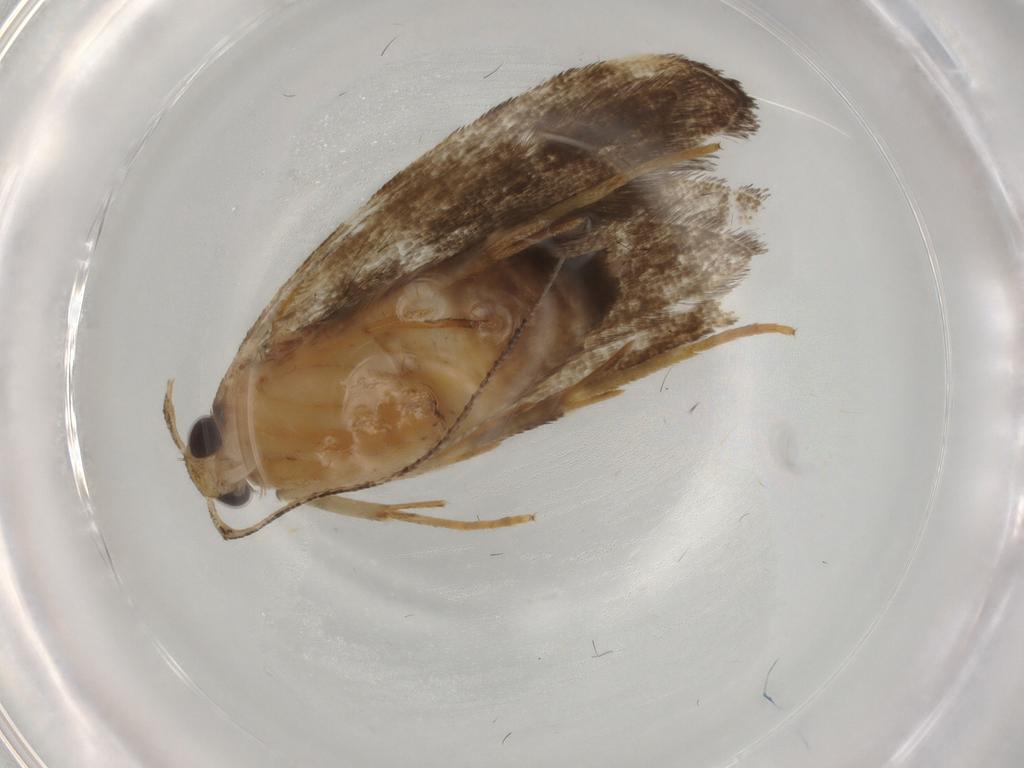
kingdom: Animalia
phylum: Arthropoda
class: Insecta
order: Lepidoptera
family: Gelechiidae
